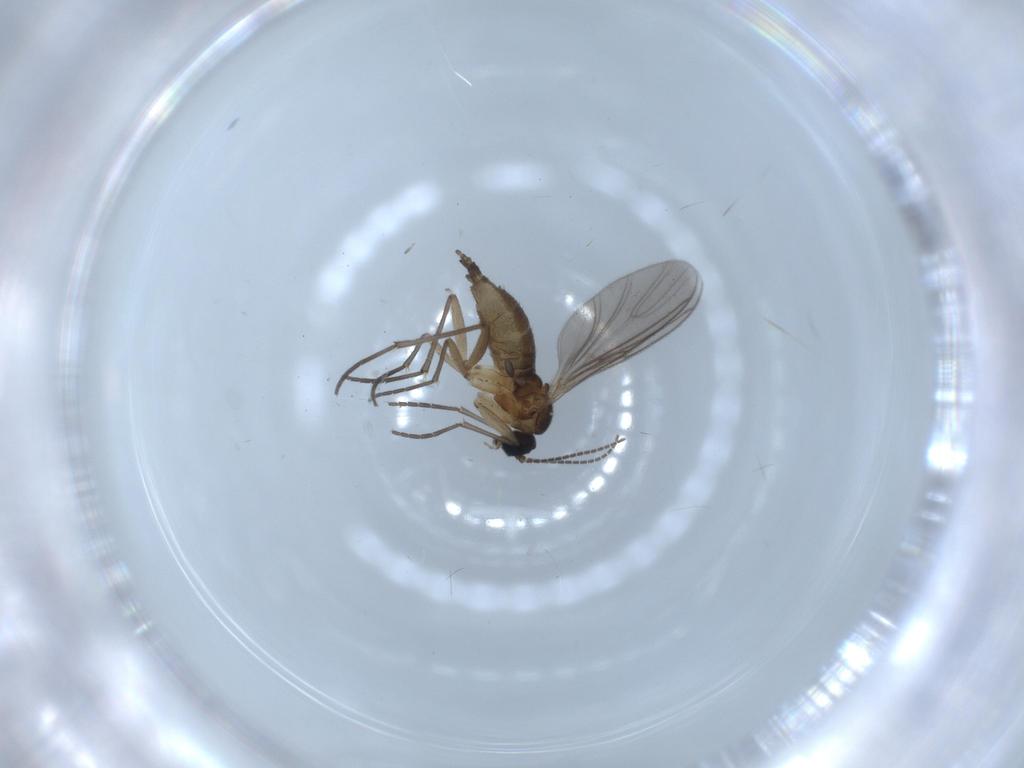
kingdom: Animalia
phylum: Arthropoda
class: Insecta
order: Diptera
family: Sciaridae
